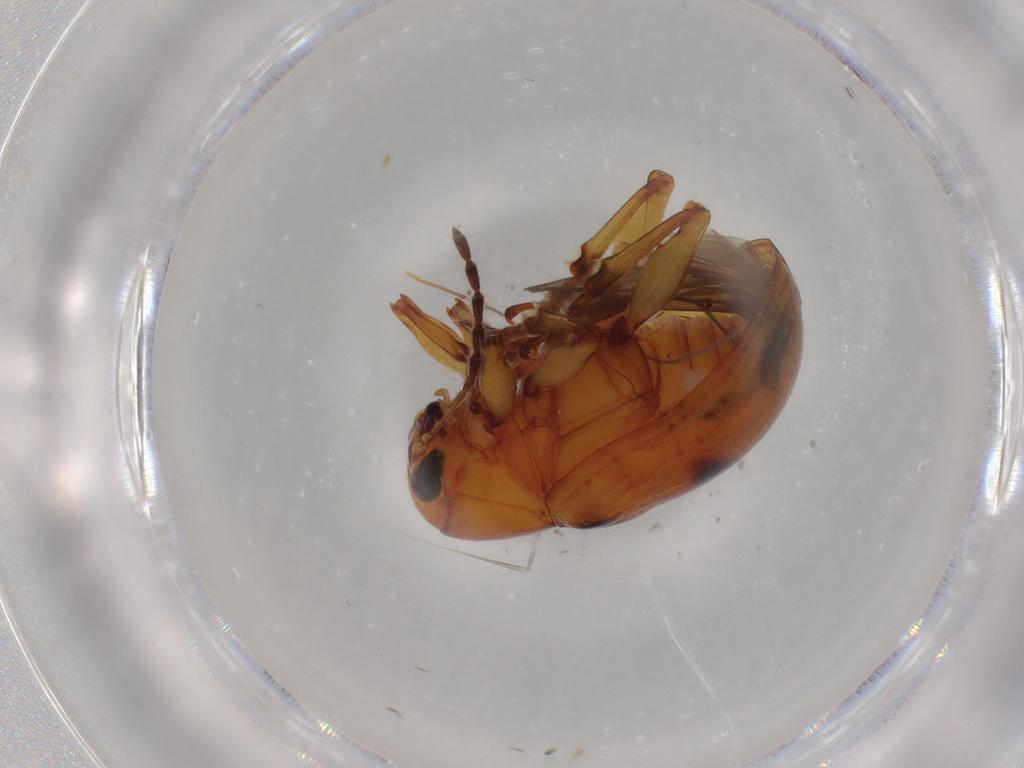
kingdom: Animalia
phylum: Arthropoda
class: Insecta
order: Coleoptera
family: Chrysomelidae
